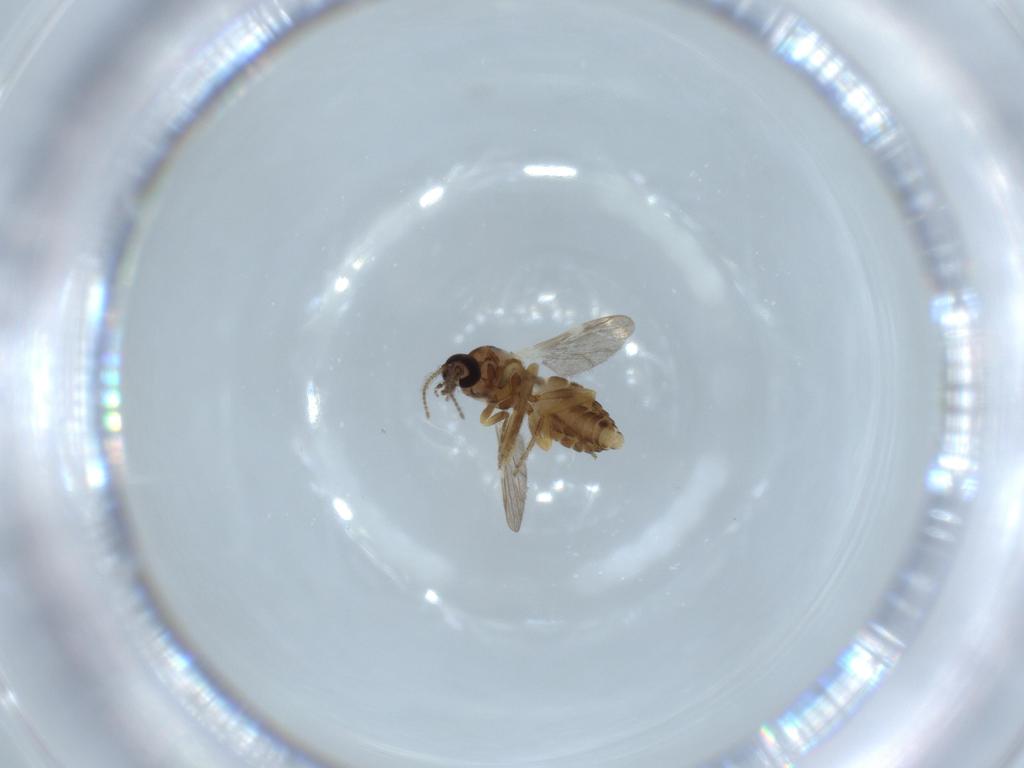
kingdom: Animalia
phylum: Arthropoda
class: Insecta
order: Diptera
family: Ceratopogonidae
